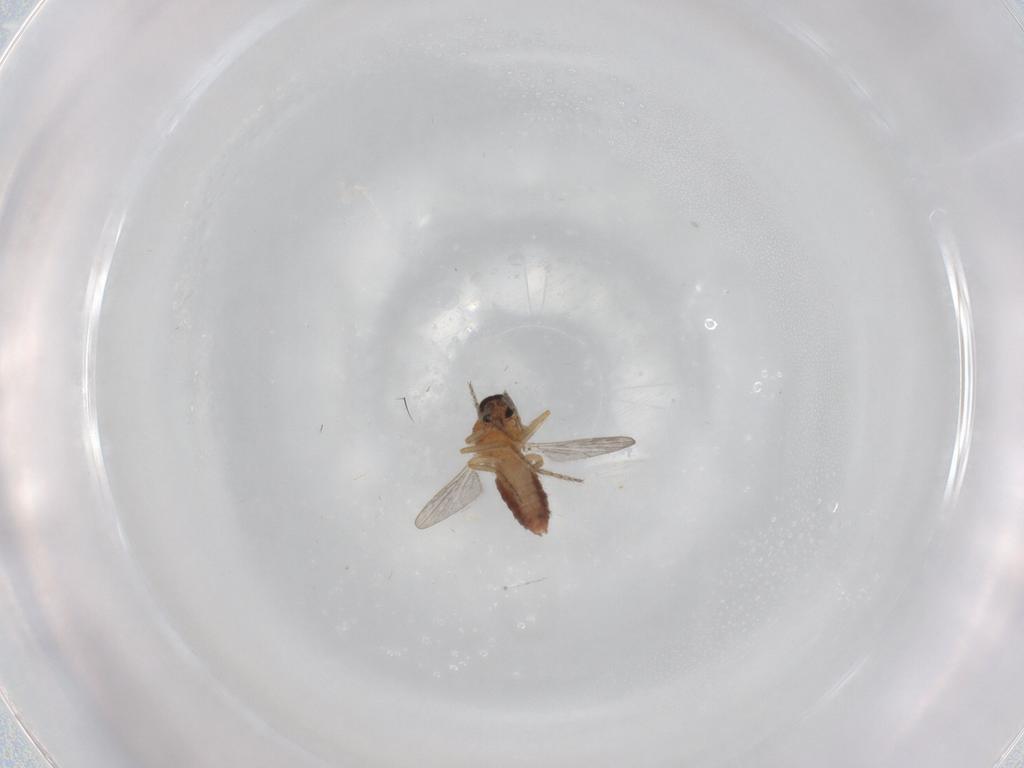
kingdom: Animalia
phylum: Arthropoda
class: Insecta
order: Diptera
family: Ceratopogonidae
